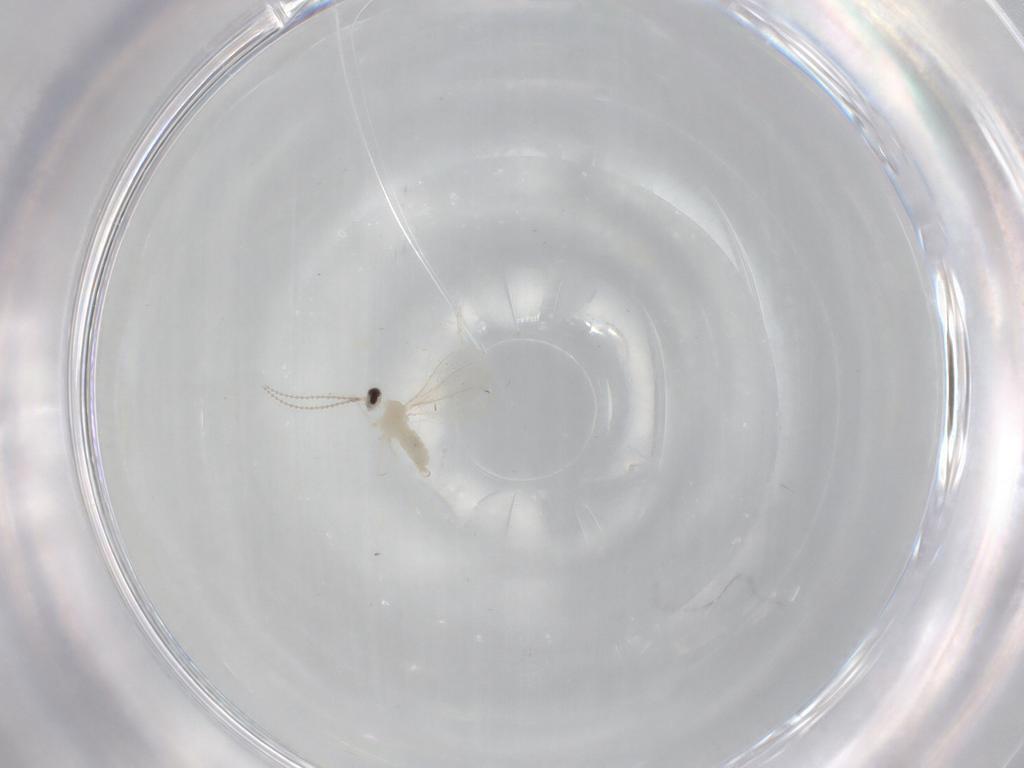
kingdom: Animalia
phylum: Arthropoda
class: Insecta
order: Diptera
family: Cecidomyiidae
